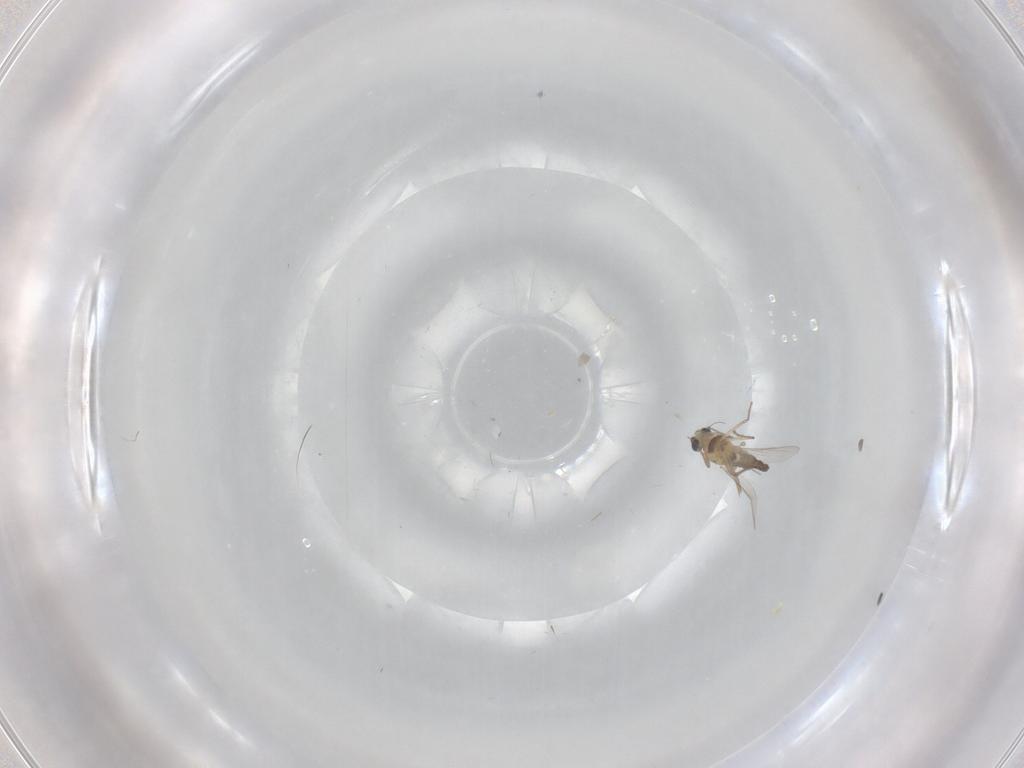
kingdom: Animalia
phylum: Arthropoda
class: Insecta
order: Diptera
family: Chironomidae
